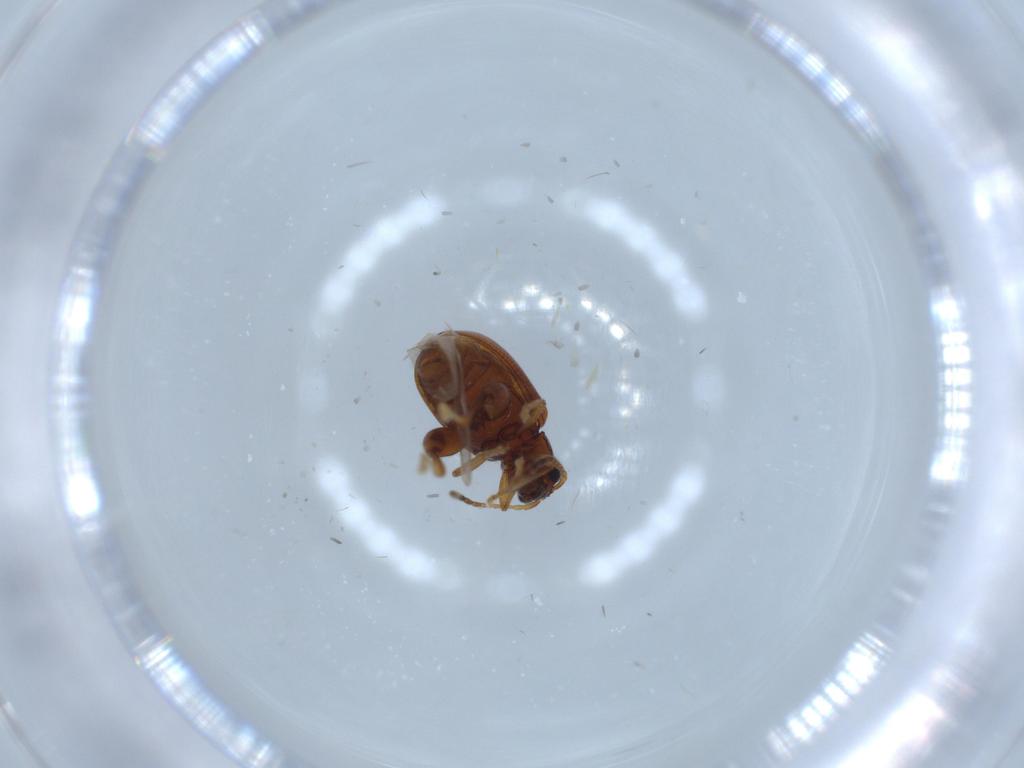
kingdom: Animalia
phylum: Arthropoda
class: Insecta
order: Coleoptera
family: Chrysomelidae
